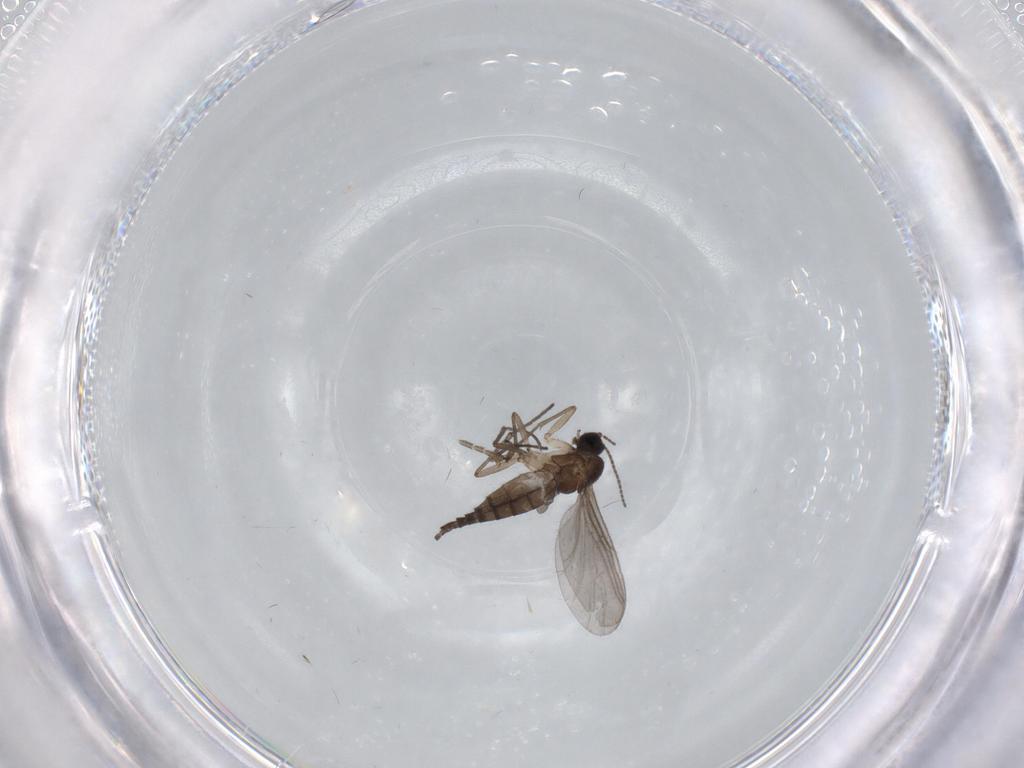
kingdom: Animalia
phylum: Arthropoda
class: Insecta
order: Diptera
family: Sciaridae
